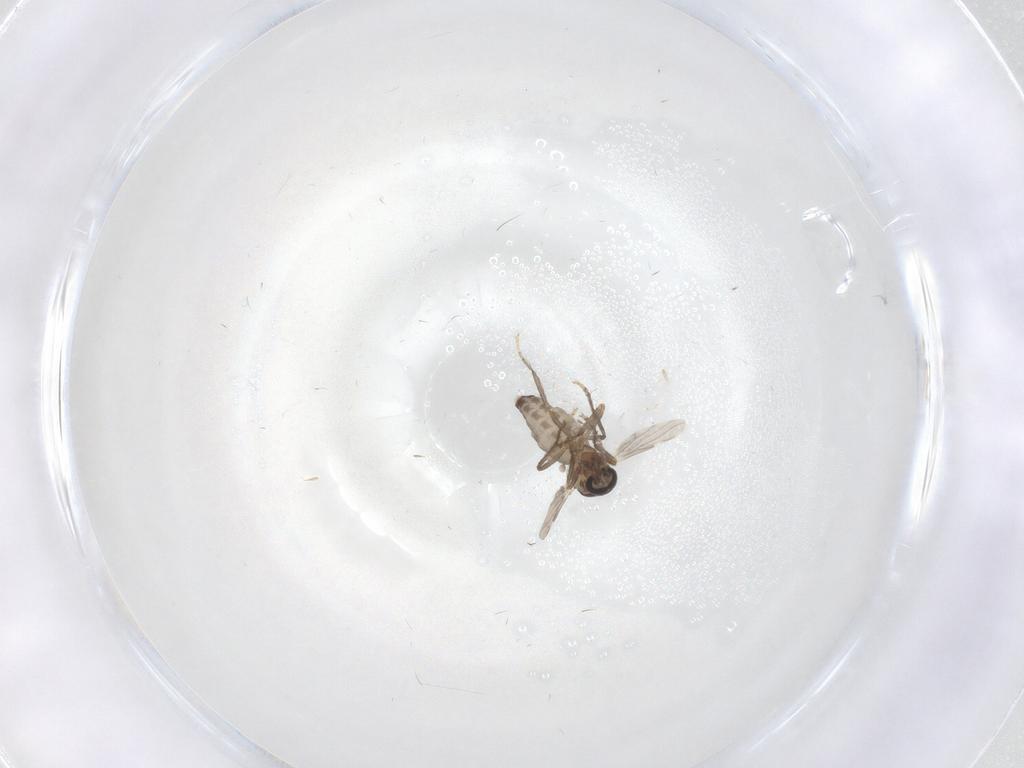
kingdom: Animalia
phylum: Arthropoda
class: Insecta
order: Diptera
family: Ceratopogonidae
